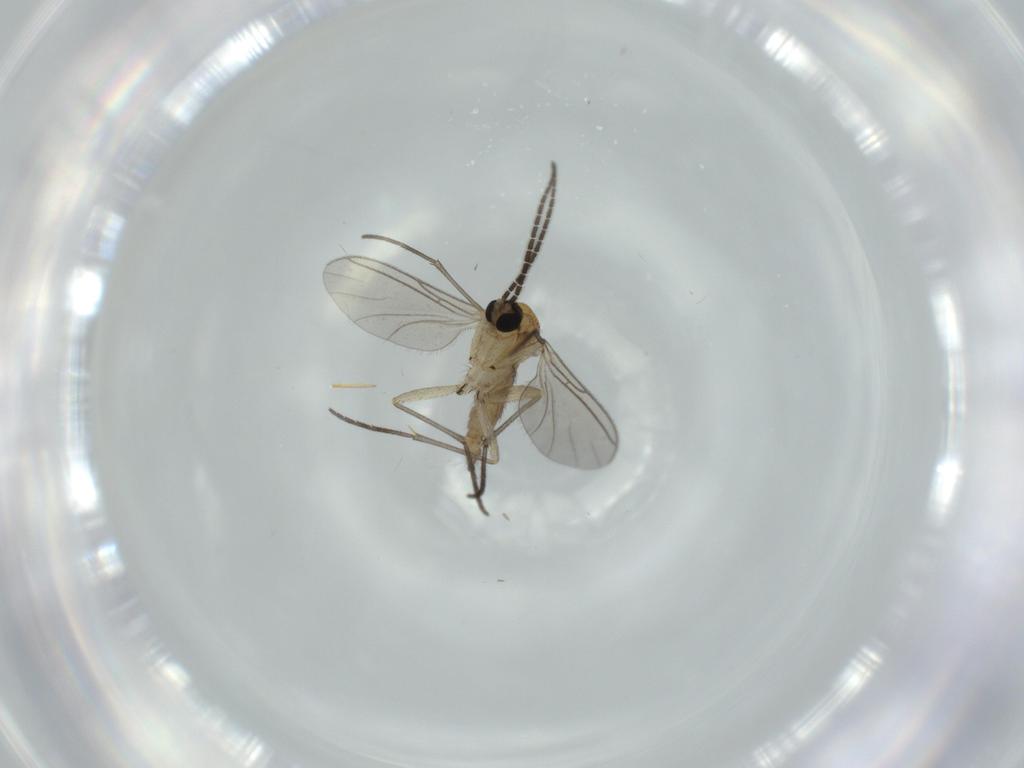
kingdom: Animalia
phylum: Arthropoda
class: Insecta
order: Diptera
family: Sciaridae
